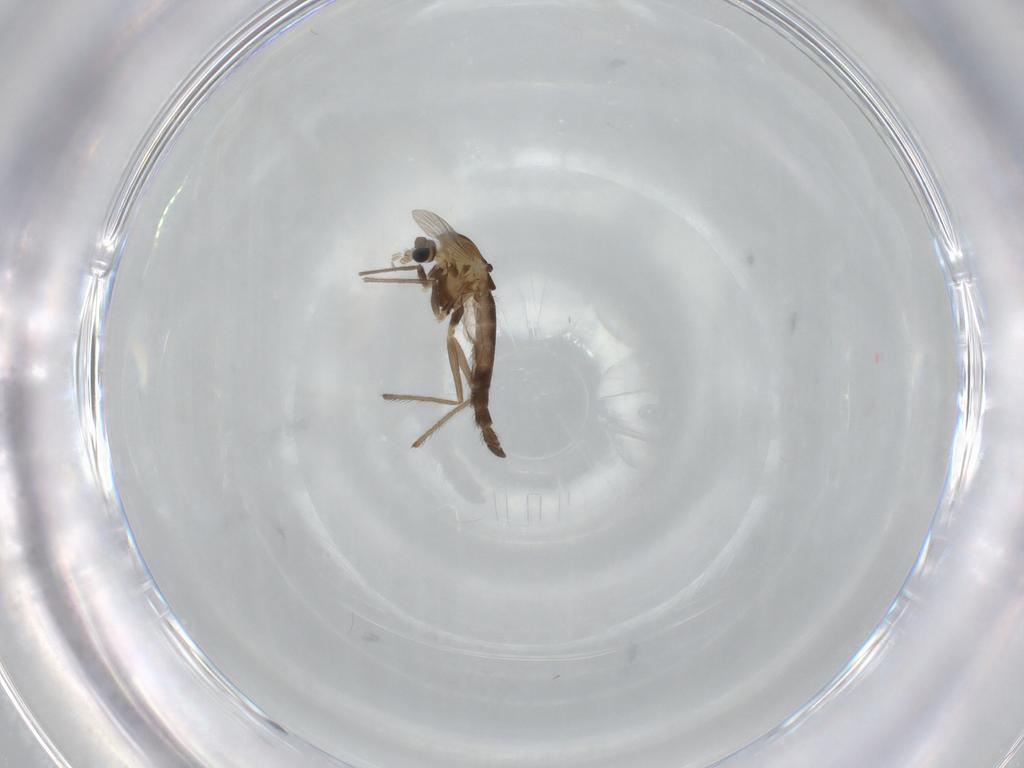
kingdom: Animalia
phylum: Arthropoda
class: Insecta
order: Diptera
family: Chironomidae
